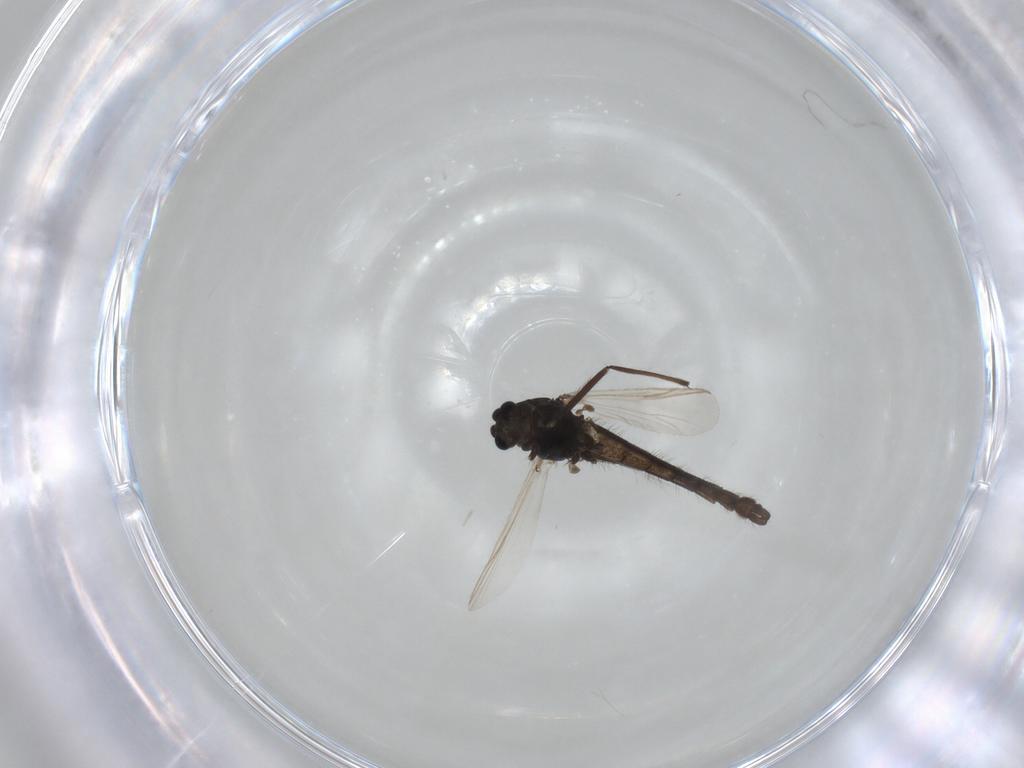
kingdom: Animalia
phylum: Arthropoda
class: Insecta
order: Diptera
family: Chironomidae
